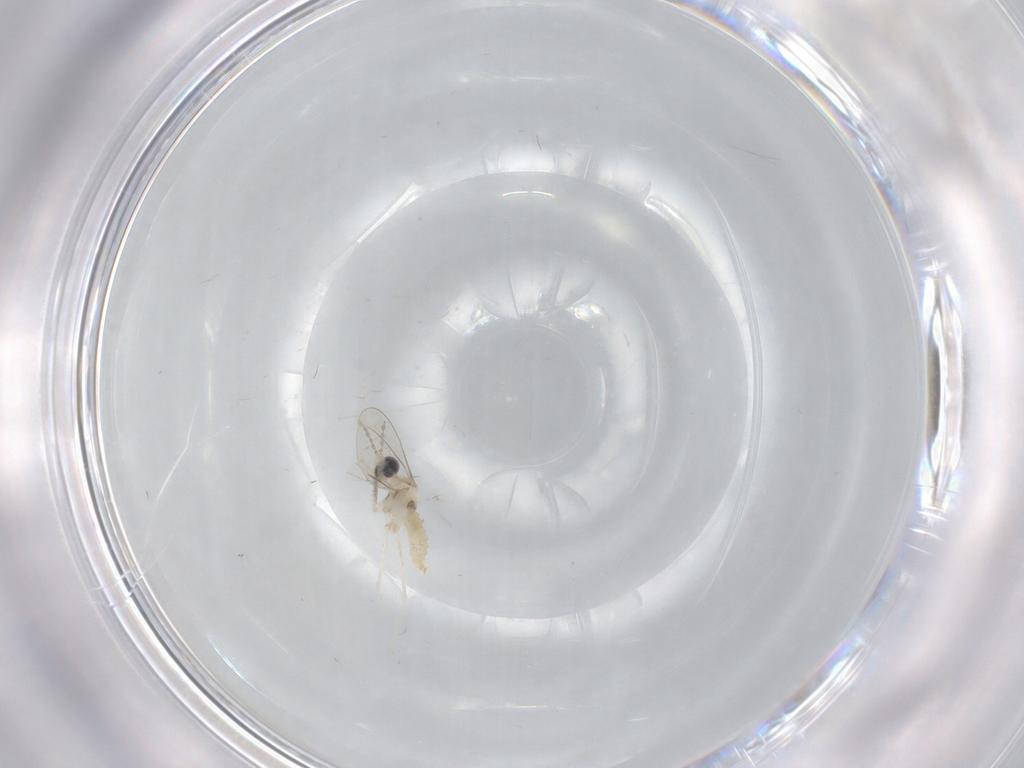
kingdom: Animalia
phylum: Arthropoda
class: Insecta
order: Diptera
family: Cecidomyiidae
